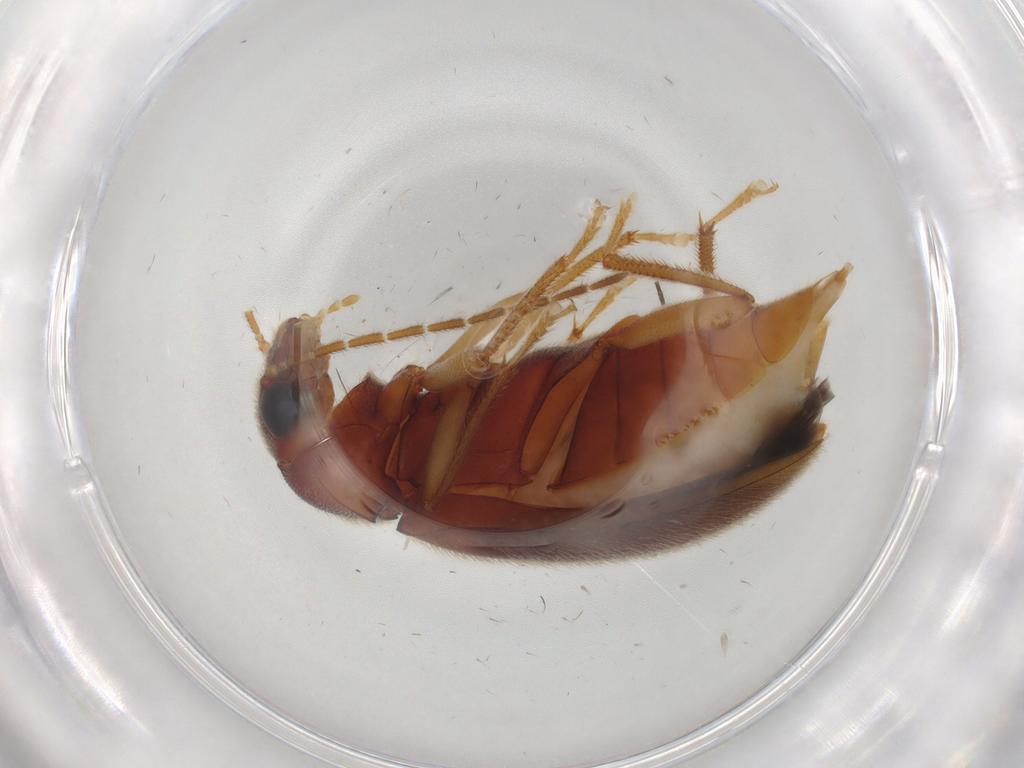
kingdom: Animalia
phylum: Arthropoda
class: Insecta
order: Coleoptera
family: Ptilodactylidae
